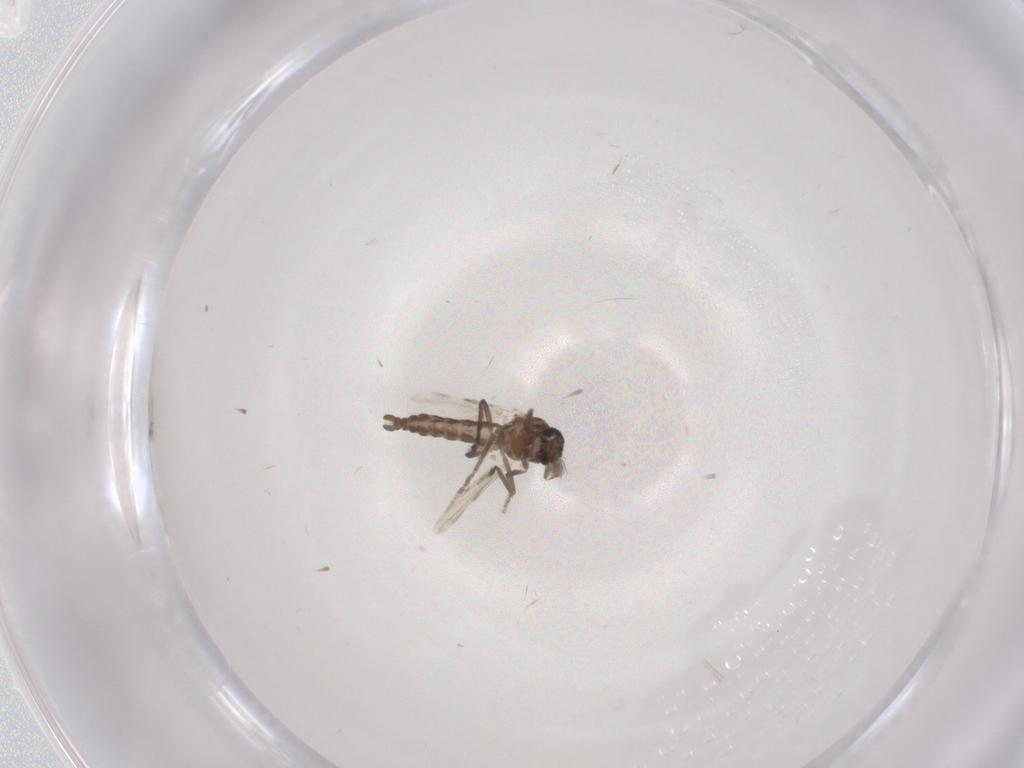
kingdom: Animalia
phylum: Arthropoda
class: Insecta
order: Diptera
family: Ceratopogonidae
